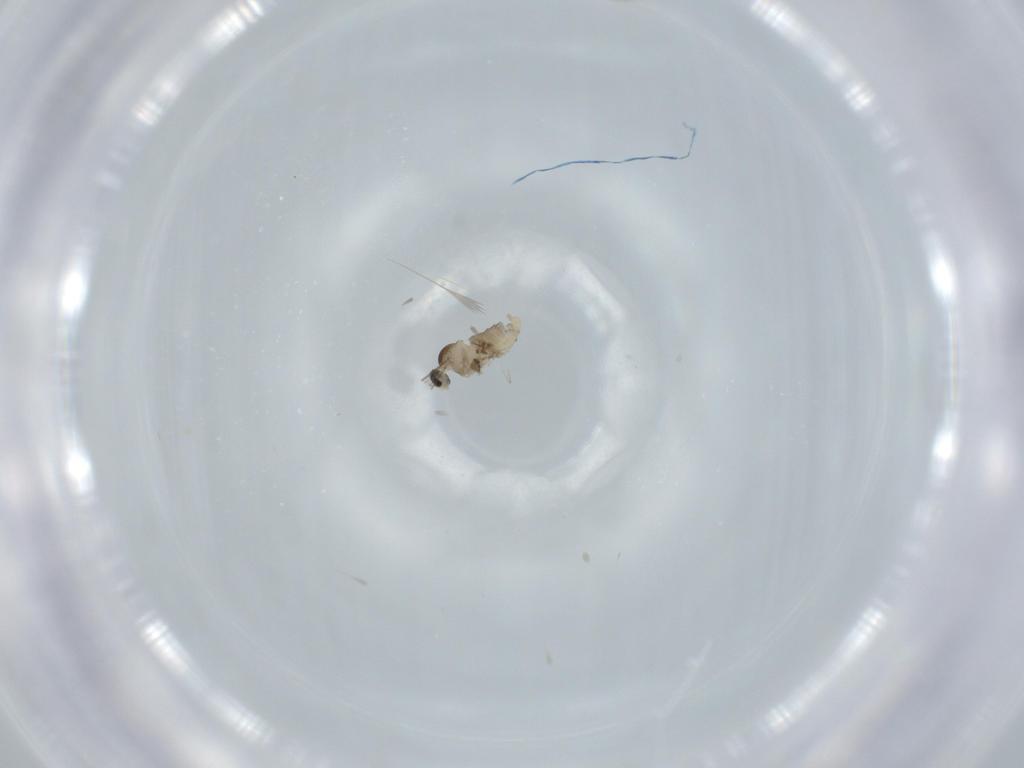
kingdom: Animalia
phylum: Arthropoda
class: Insecta
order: Diptera
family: Cecidomyiidae
